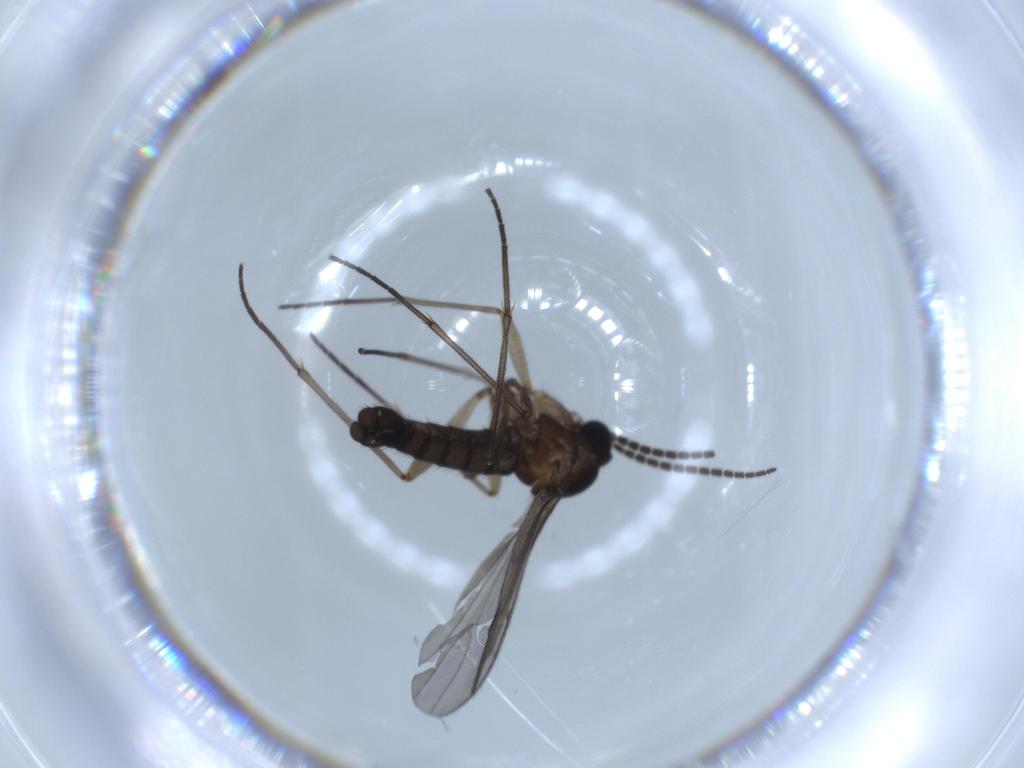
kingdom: Animalia
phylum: Arthropoda
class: Insecta
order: Diptera
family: Sciaridae
